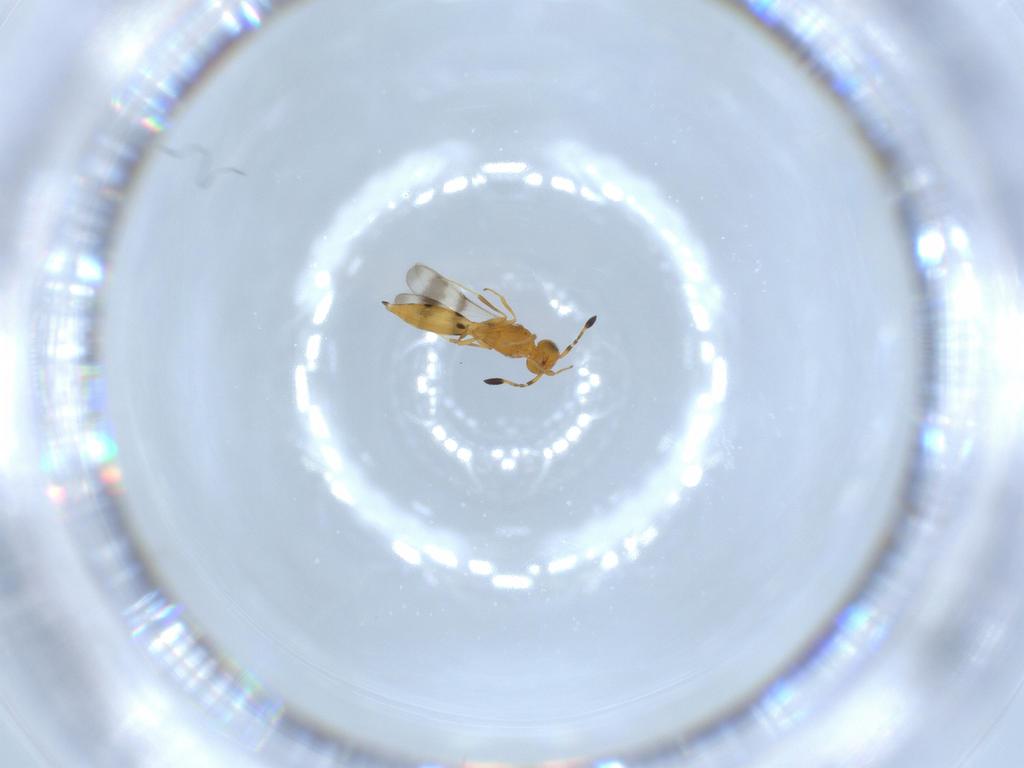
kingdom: Animalia
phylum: Arthropoda
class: Insecta
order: Hymenoptera
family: Scelionidae
